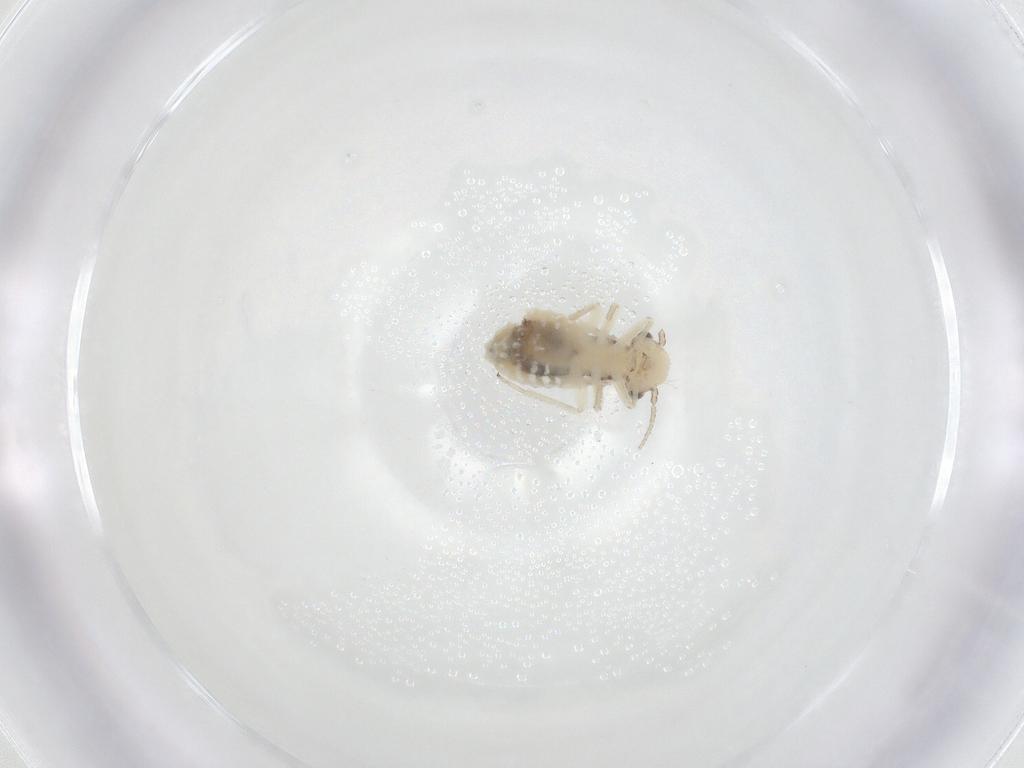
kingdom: Animalia
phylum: Arthropoda
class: Insecta
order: Psocodea
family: Pseudocaeciliidae
